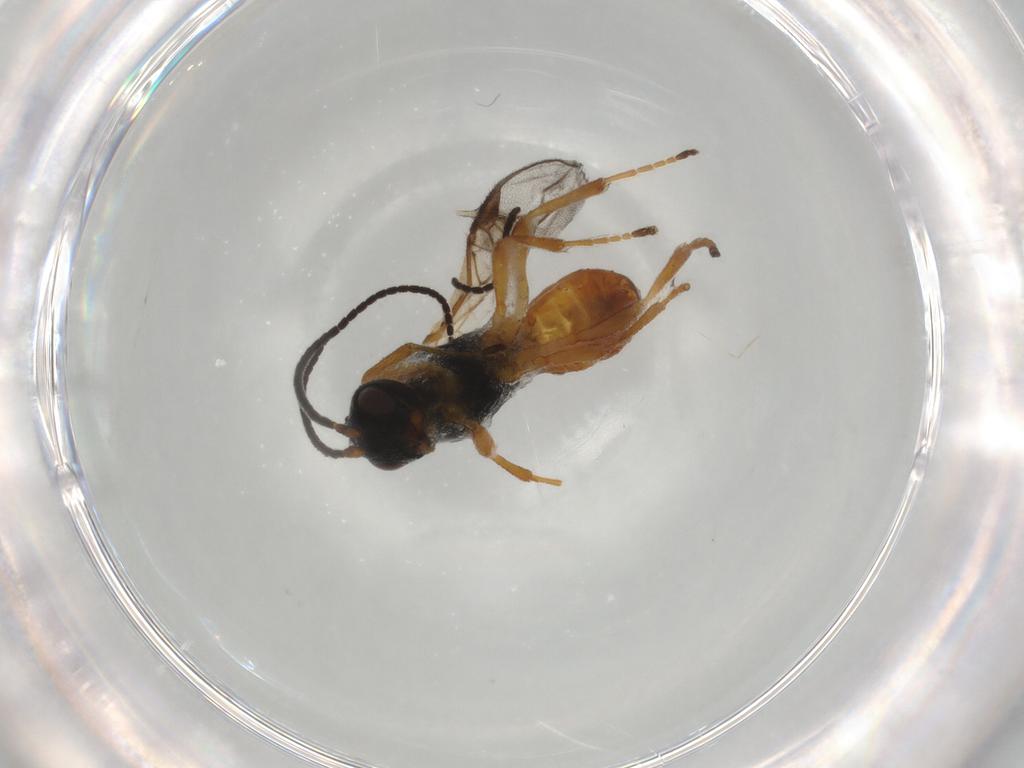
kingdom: Animalia
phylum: Arthropoda
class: Insecta
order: Hymenoptera
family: Braconidae
